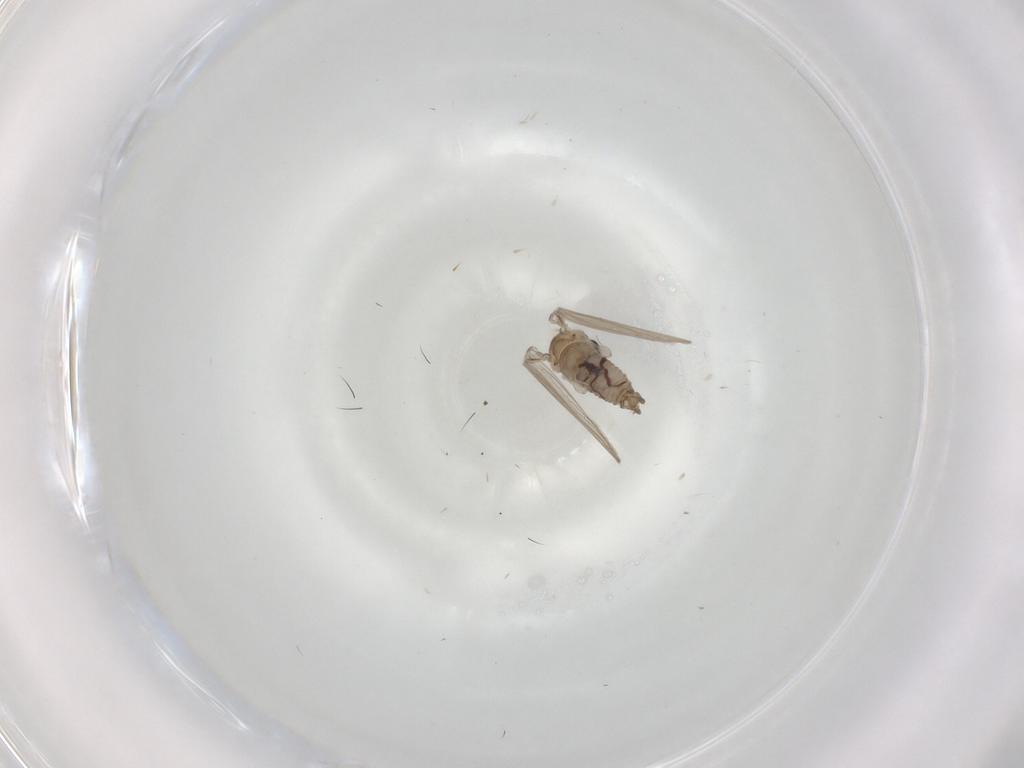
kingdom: Animalia
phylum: Arthropoda
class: Insecta
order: Diptera
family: Psychodidae
